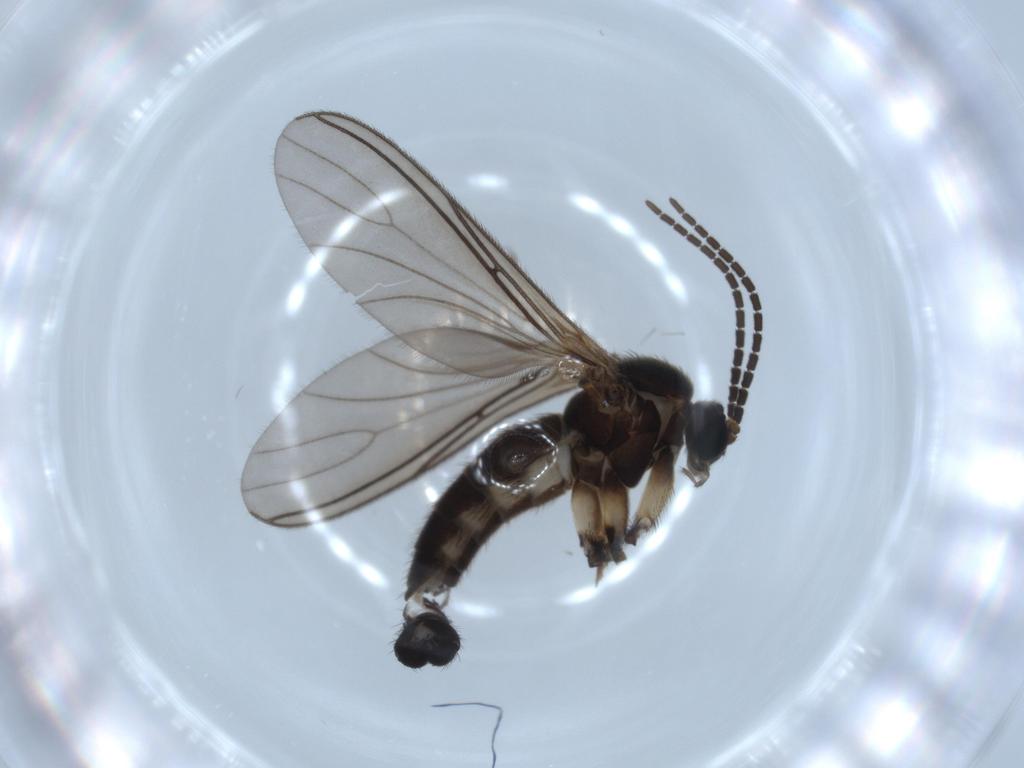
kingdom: Animalia
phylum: Arthropoda
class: Insecta
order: Diptera
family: Sciaridae
